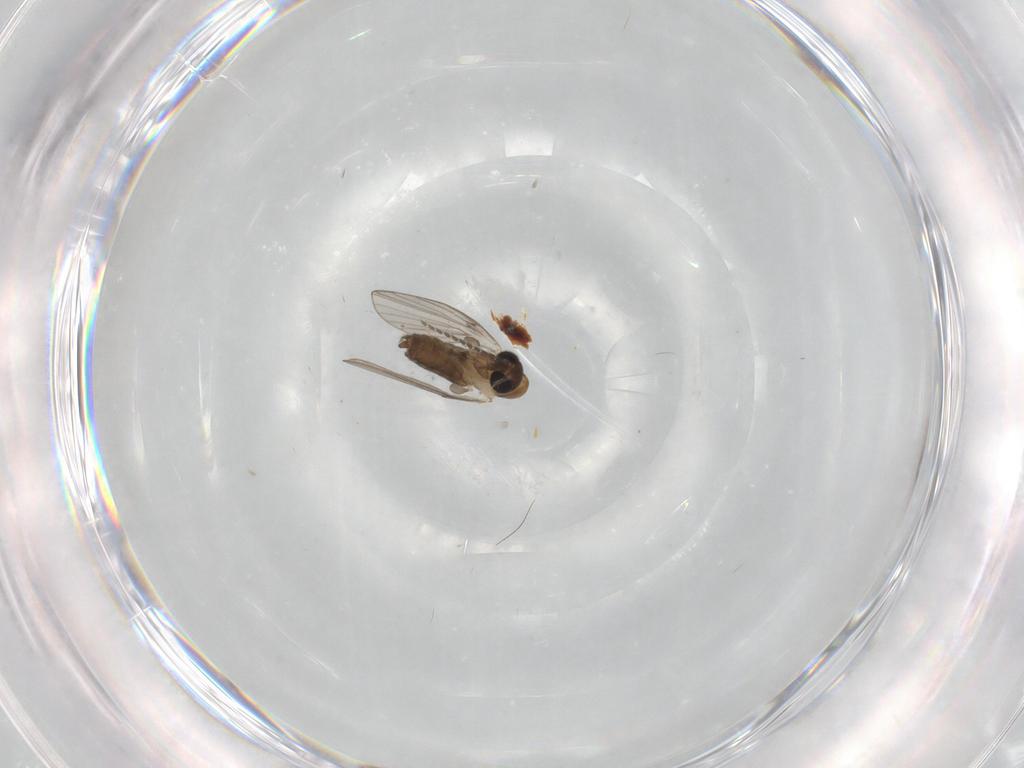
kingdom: Animalia
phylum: Arthropoda
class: Insecta
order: Diptera
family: Psychodidae
